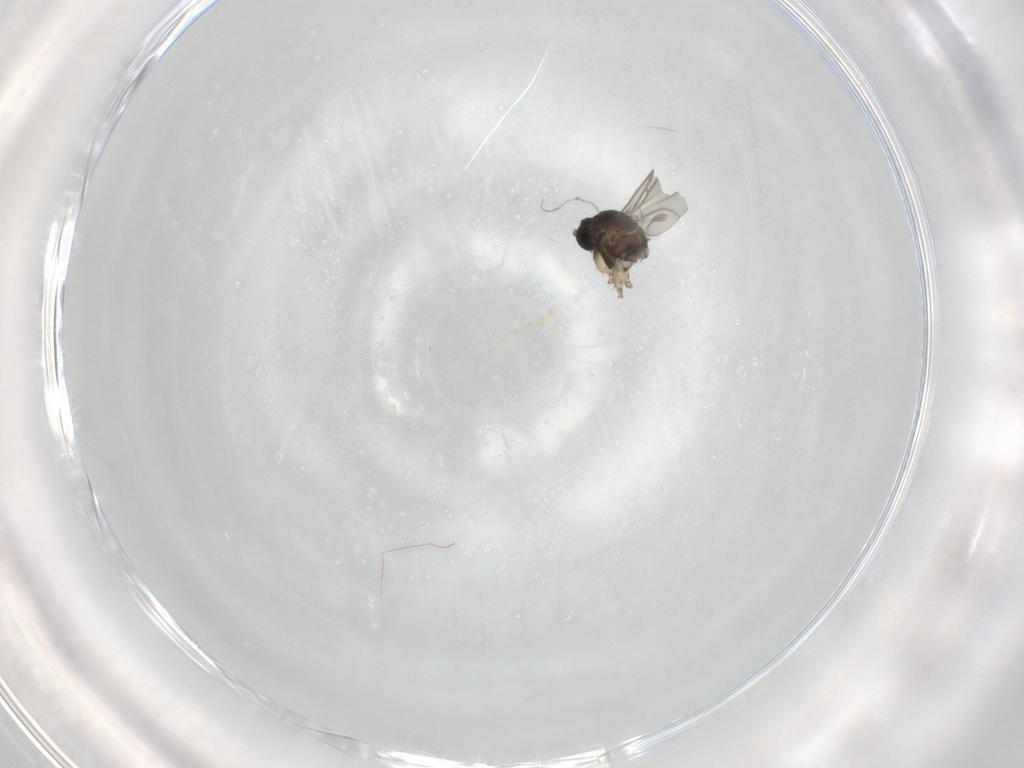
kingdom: Animalia
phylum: Arthropoda
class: Insecta
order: Diptera
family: Sciaridae
